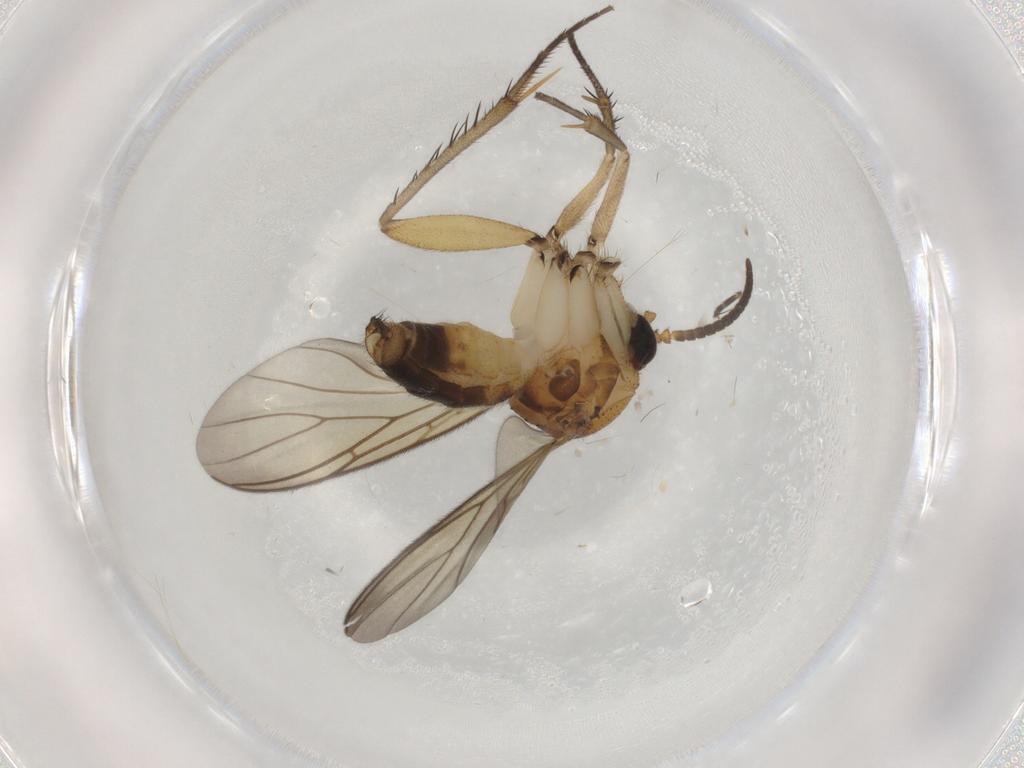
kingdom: Animalia
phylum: Arthropoda
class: Insecta
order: Diptera
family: Mycetophilidae
